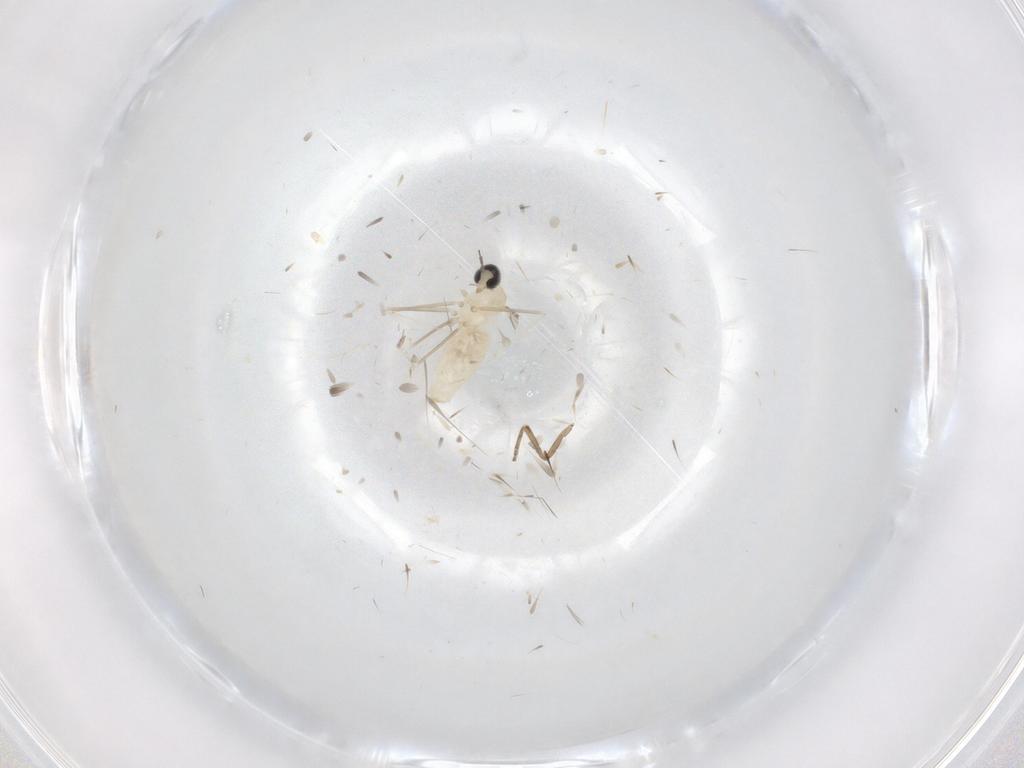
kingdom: Animalia
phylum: Arthropoda
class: Insecta
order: Diptera
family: Cecidomyiidae
